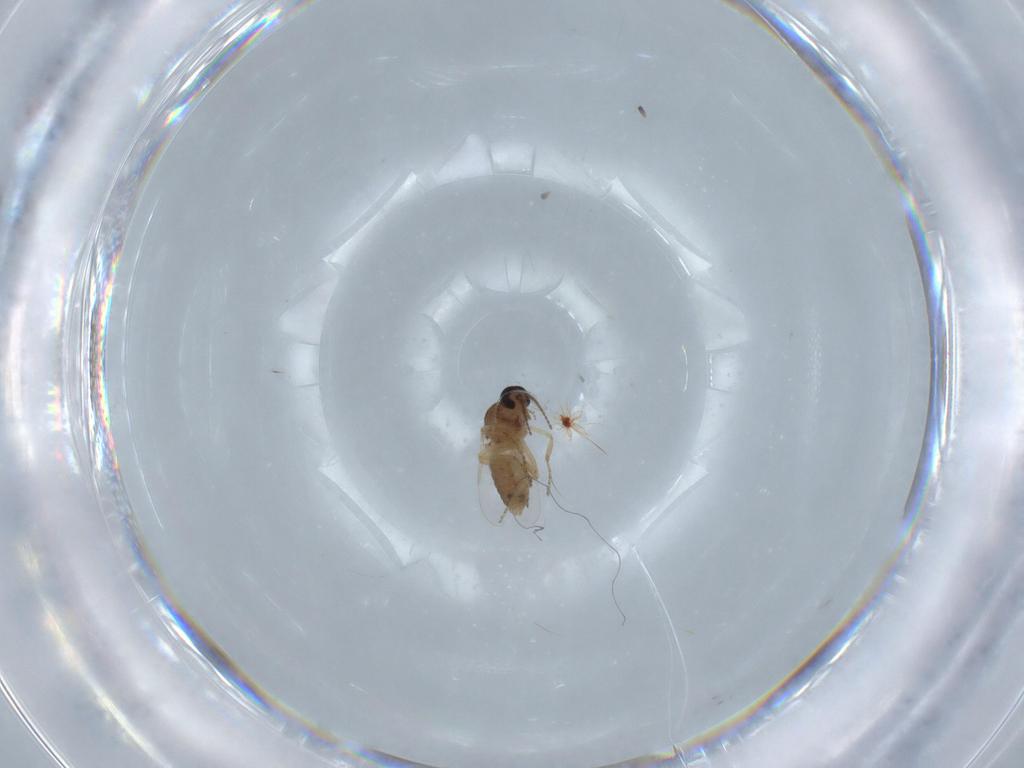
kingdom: Animalia
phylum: Arthropoda
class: Insecta
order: Diptera
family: Ceratopogonidae
